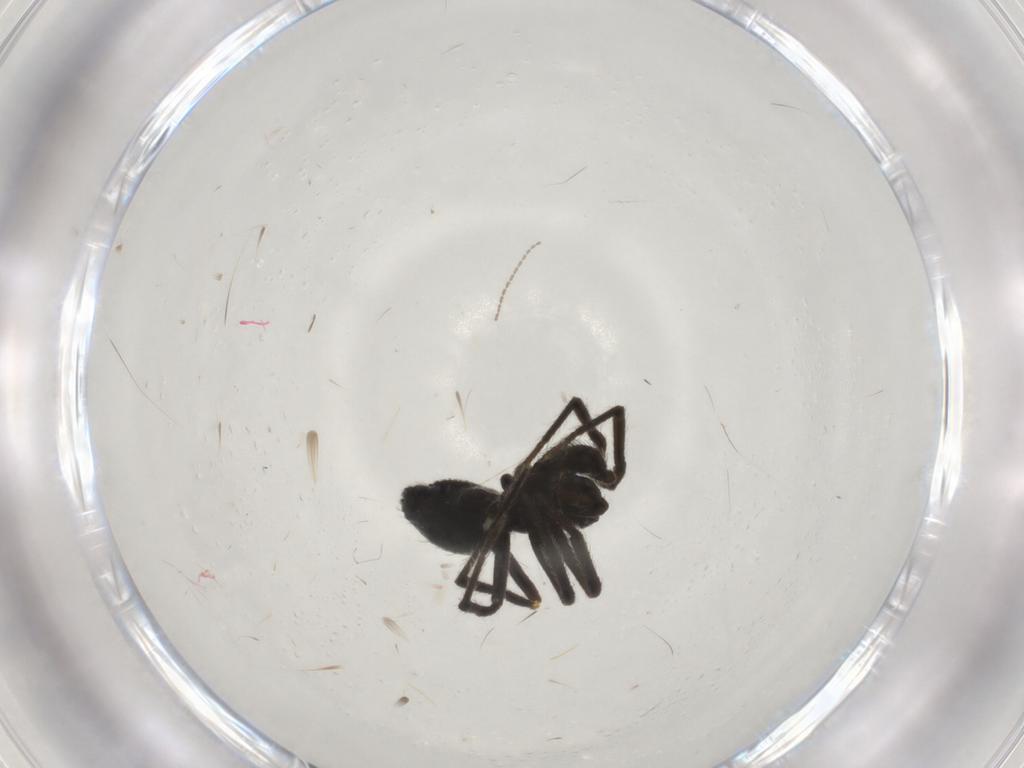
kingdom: Animalia
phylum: Arthropoda
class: Arachnida
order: Araneae
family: Theridiidae
